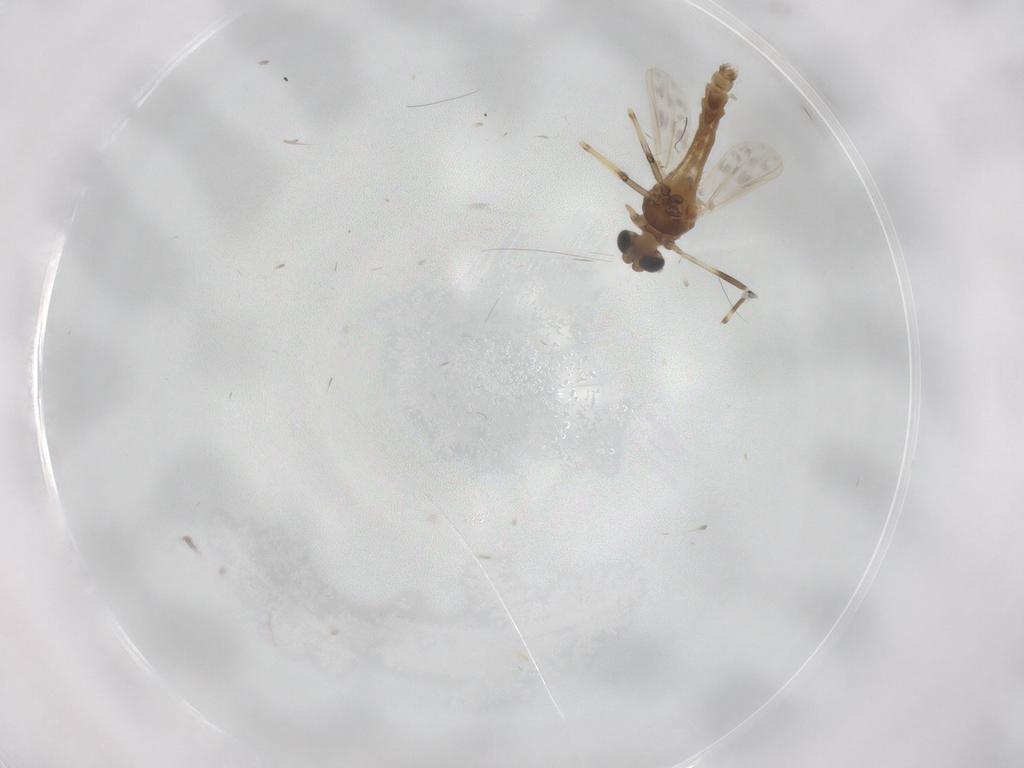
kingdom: Animalia
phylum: Arthropoda
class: Insecta
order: Diptera
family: Chironomidae
